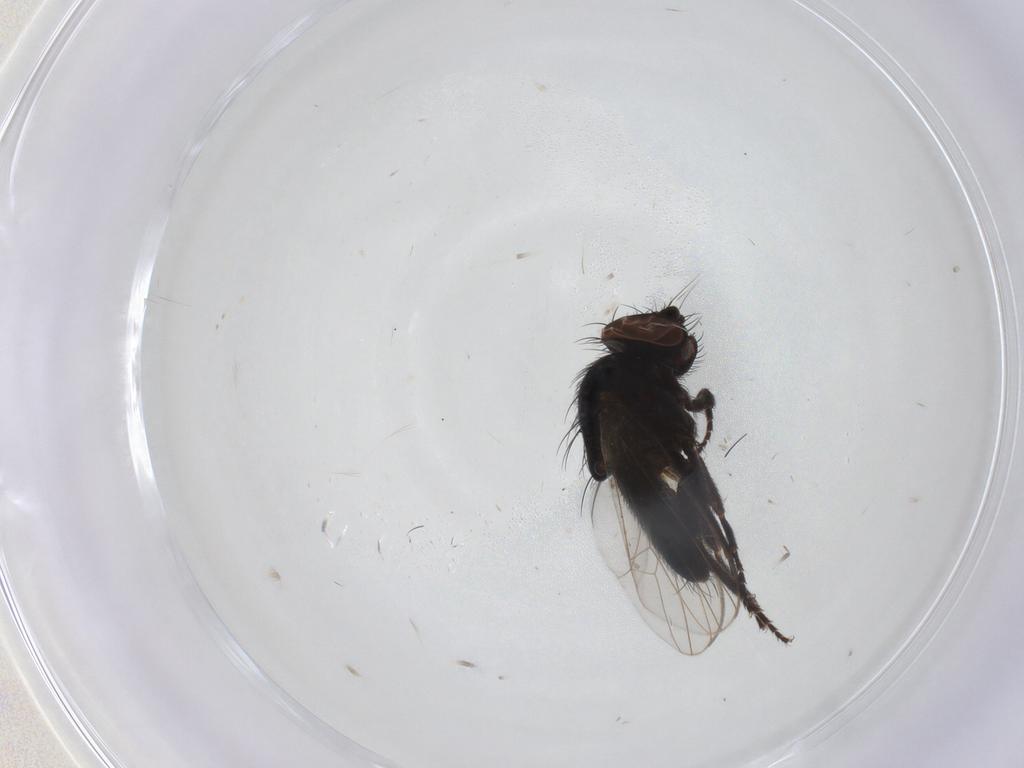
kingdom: Animalia
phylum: Arthropoda
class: Insecta
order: Diptera
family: Chloropidae
